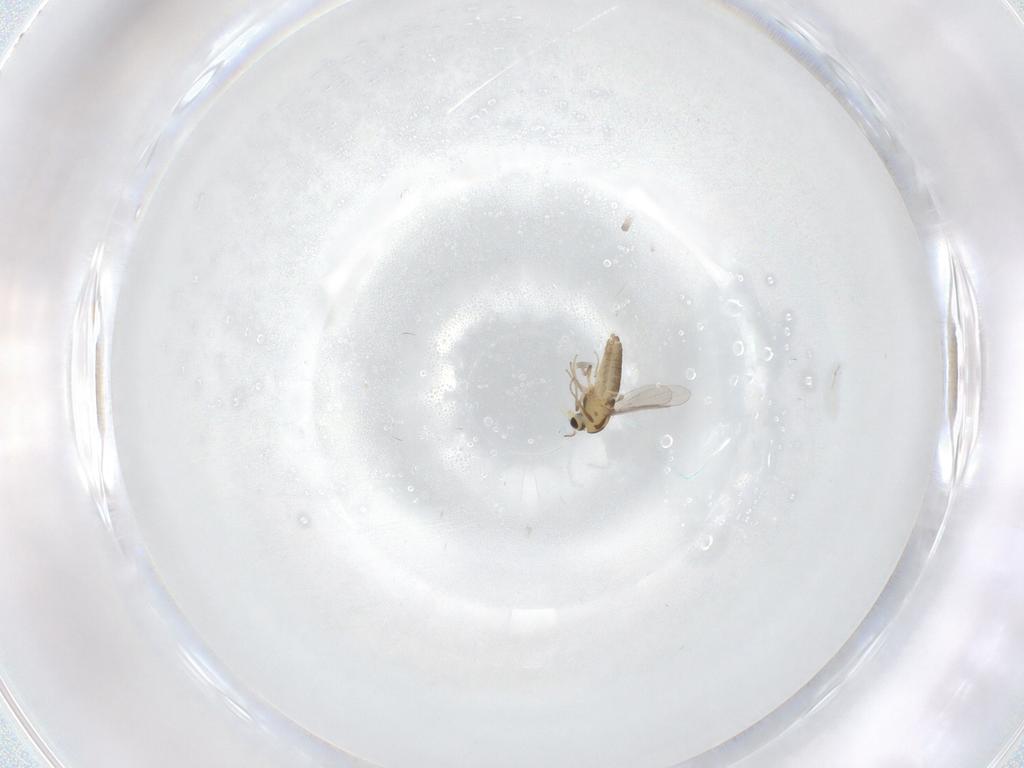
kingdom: Animalia
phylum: Arthropoda
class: Insecta
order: Diptera
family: Chironomidae
